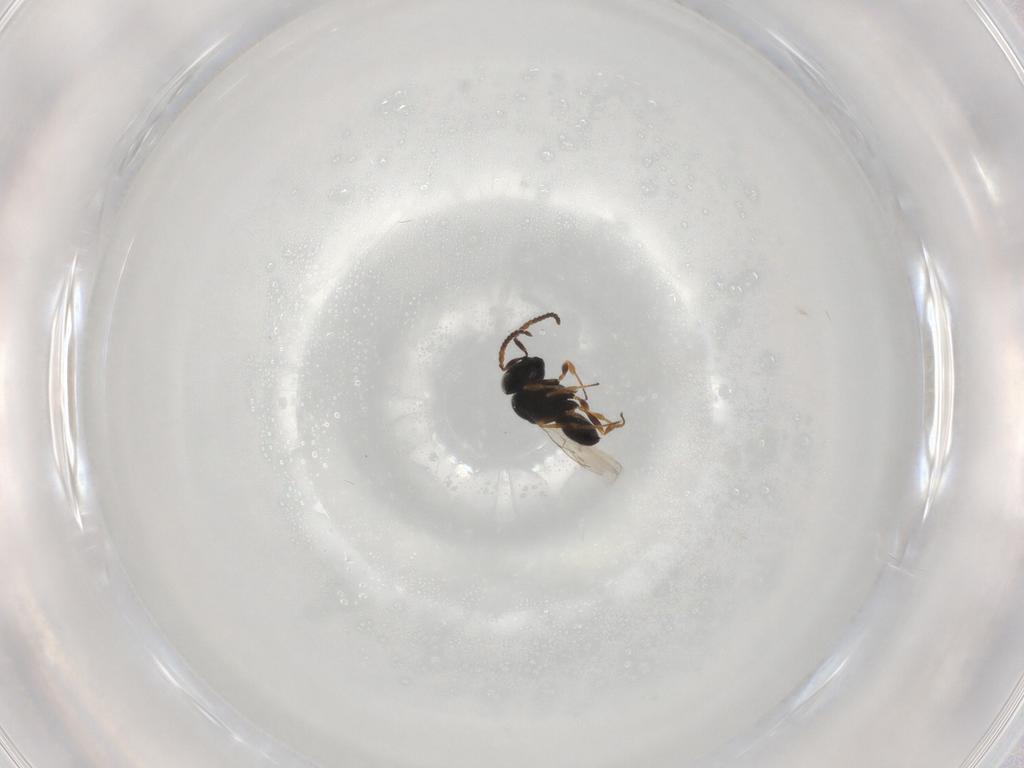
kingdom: Animalia
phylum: Arthropoda
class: Insecta
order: Hymenoptera
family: Scelionidae
